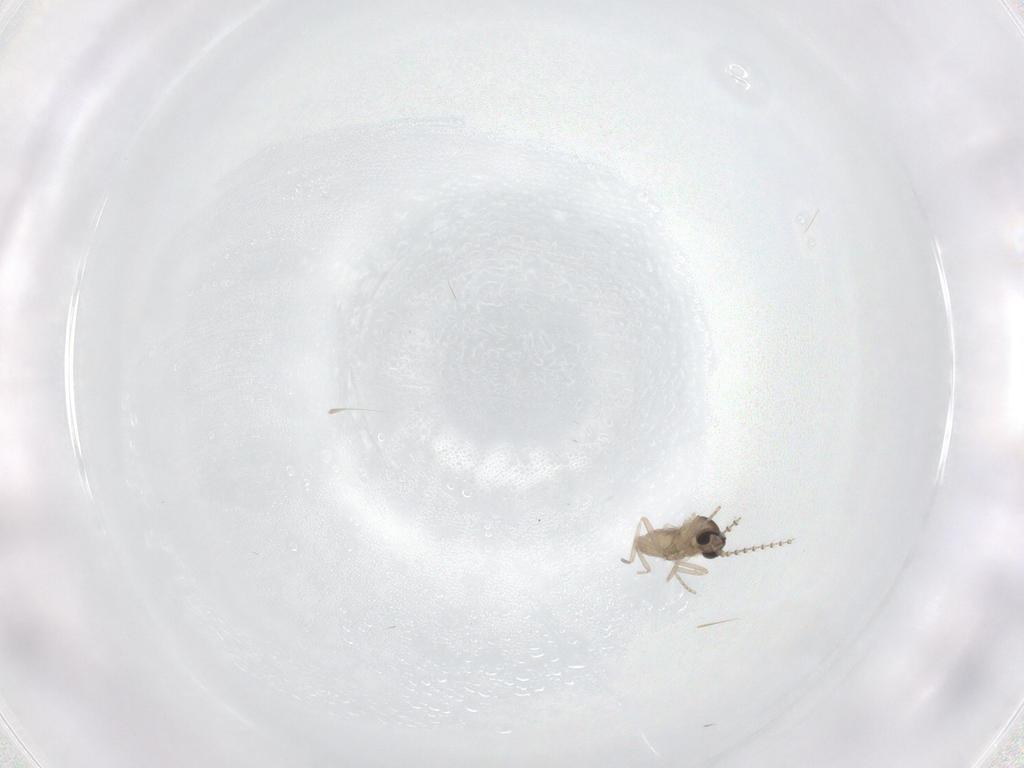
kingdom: Animalia
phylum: Arthropoda
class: Insecta
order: Diptera
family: Cecidomyiidae
